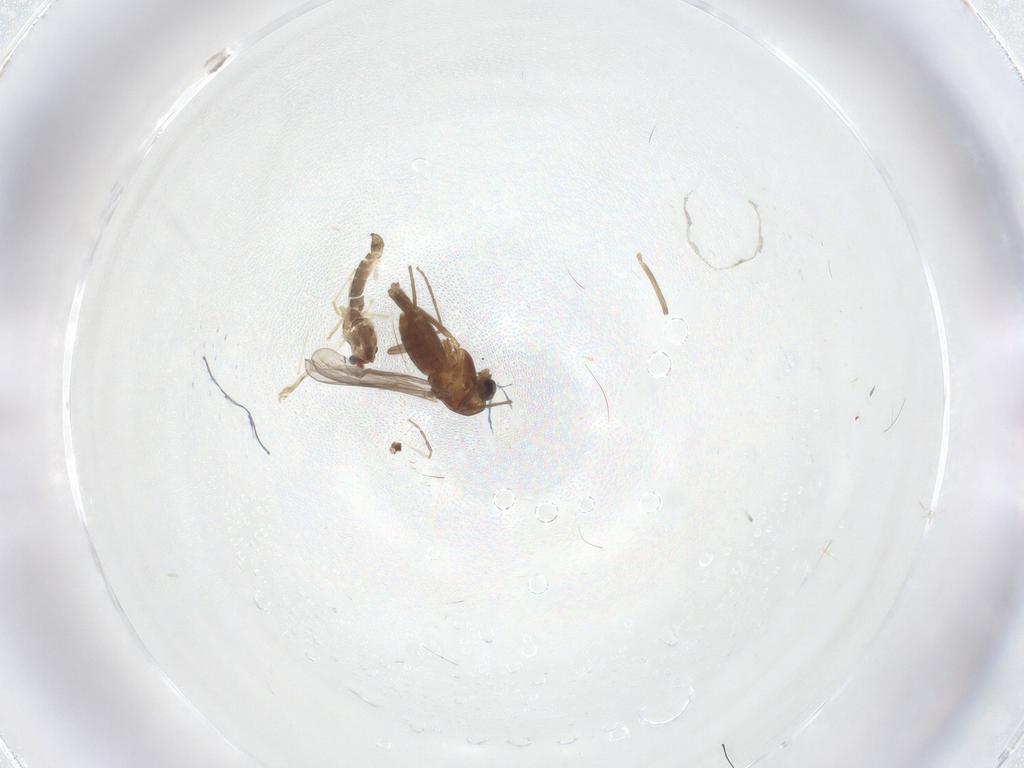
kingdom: Animalia
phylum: Arthropoda
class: Insecta
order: Diptera
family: Chironomidae
